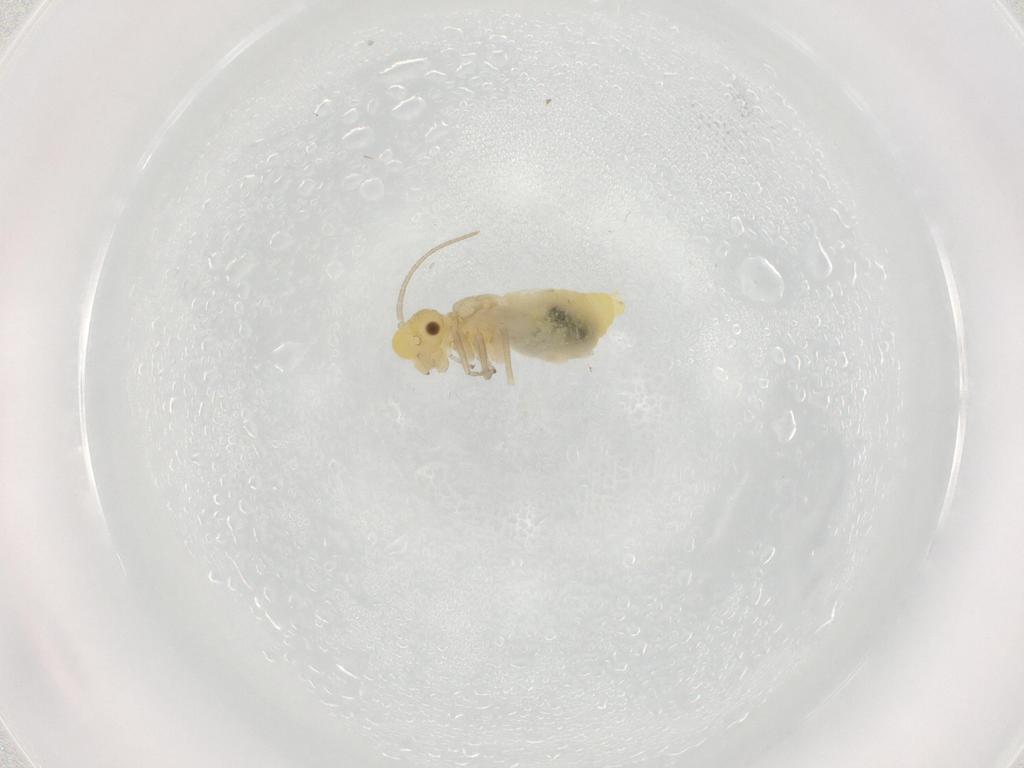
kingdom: Animalia
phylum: Arthropoda
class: Insecta
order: Psocodea
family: Caeciliusidae
